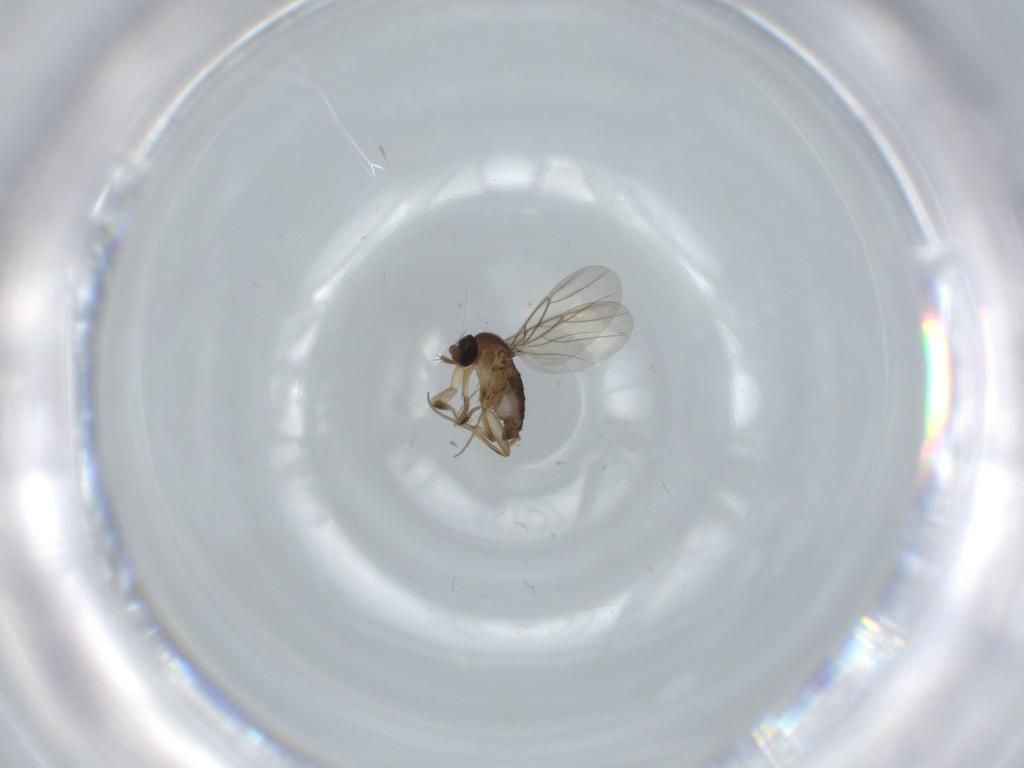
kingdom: Animalia
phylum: Arthropoda
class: Insecta
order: Diptera
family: Phoridae
